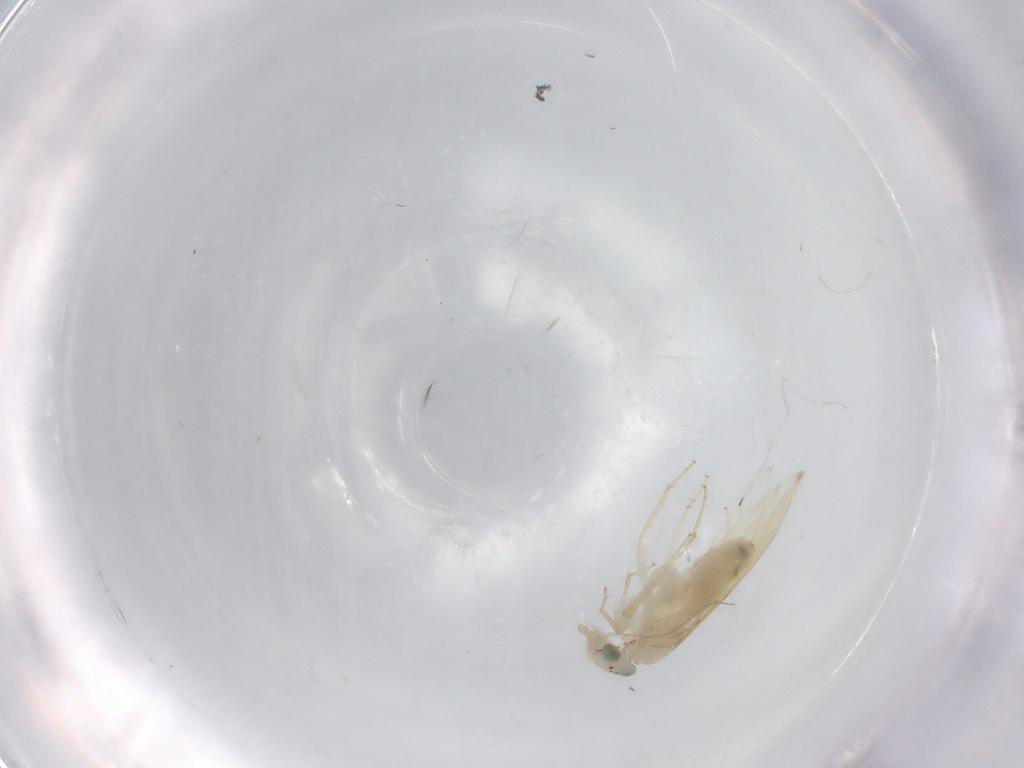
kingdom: Animalia
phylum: Arthropoda
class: Insecta
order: Psocodea
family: Lepidopsocidae
